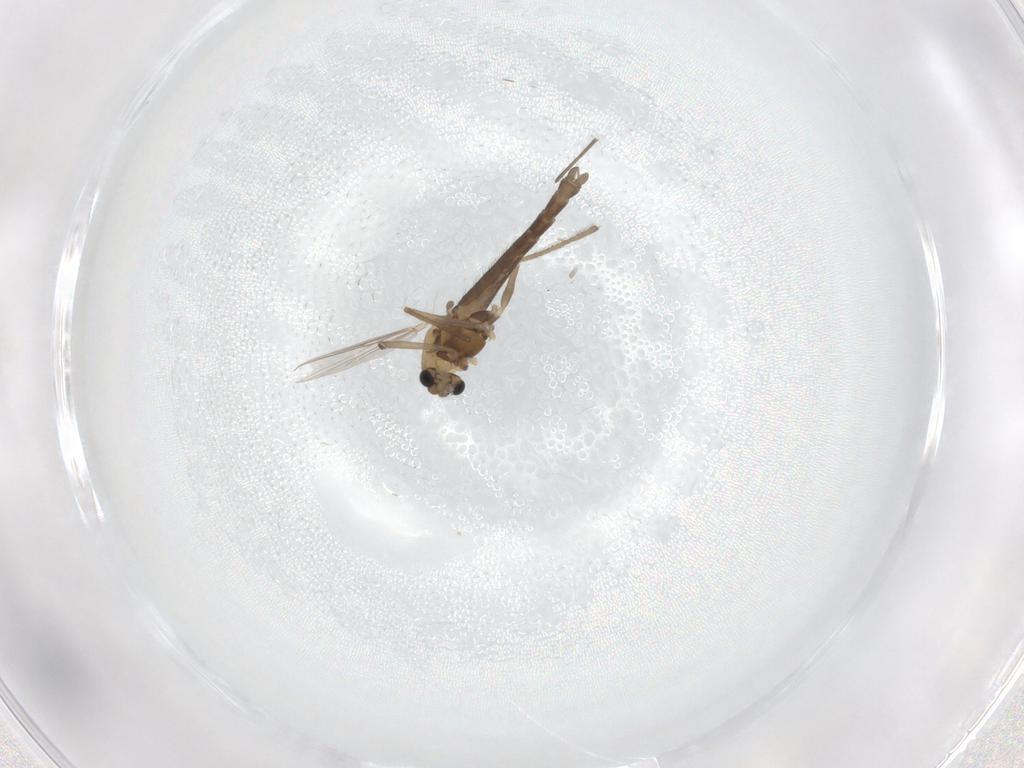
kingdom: Animalia
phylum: Arthropoda
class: Insecta
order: Diptera
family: Chironomidae
